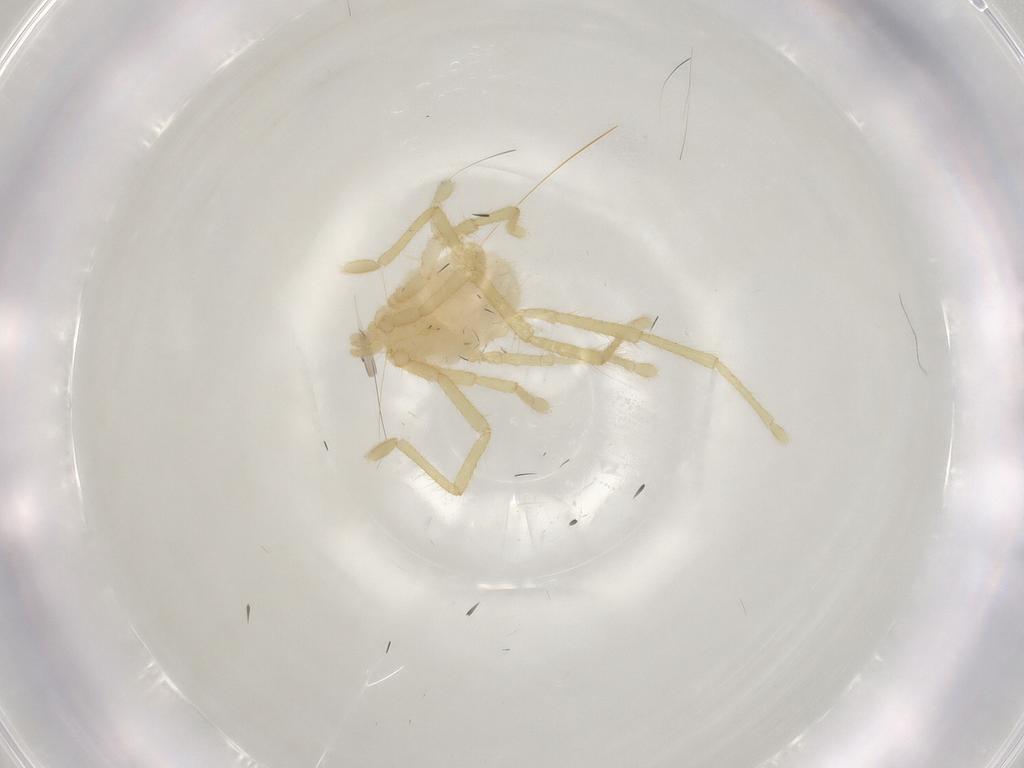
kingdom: Animalia
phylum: Arthropoda
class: Arachnida
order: Trombidiformes
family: Erythraeidae
